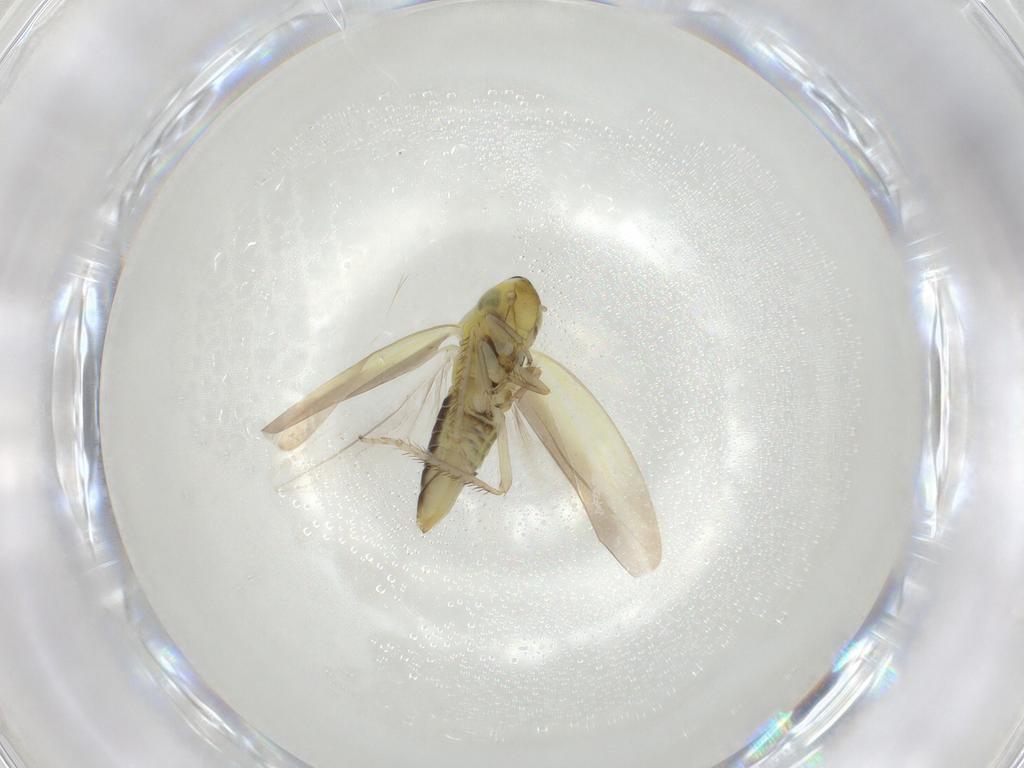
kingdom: Animalia
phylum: Arthropoda
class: Insecta
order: Hemiptera
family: Cicadellidae
